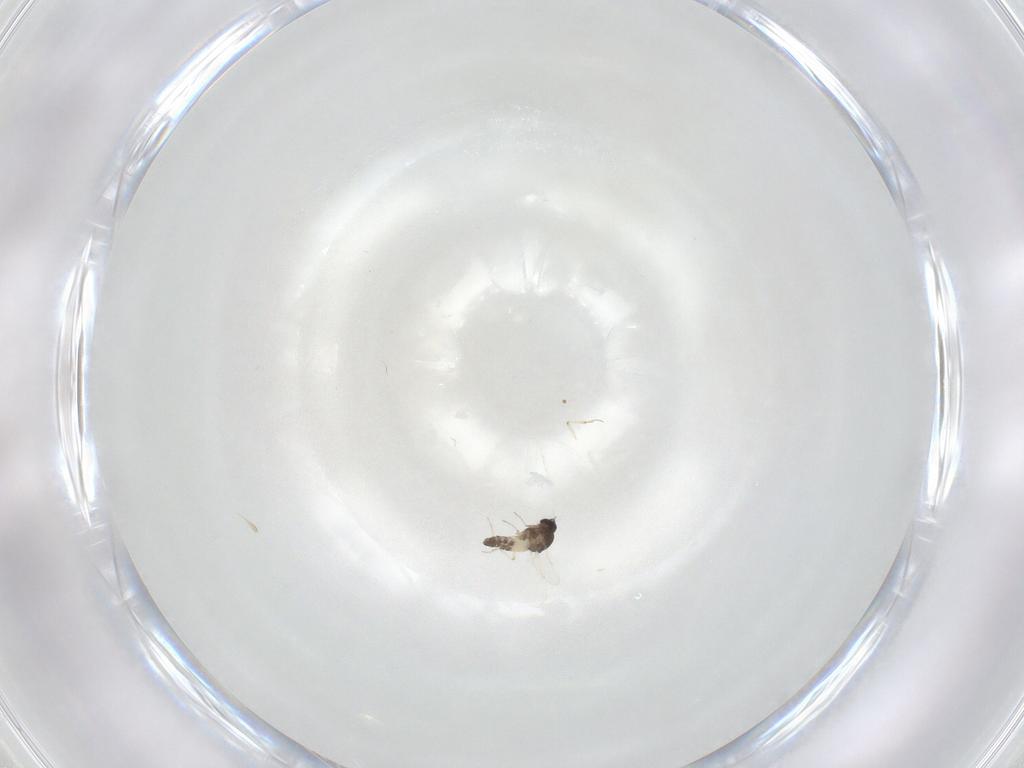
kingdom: Animalia
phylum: Arthropoda
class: Insecta
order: Diptera
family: Ceratopogonidae
